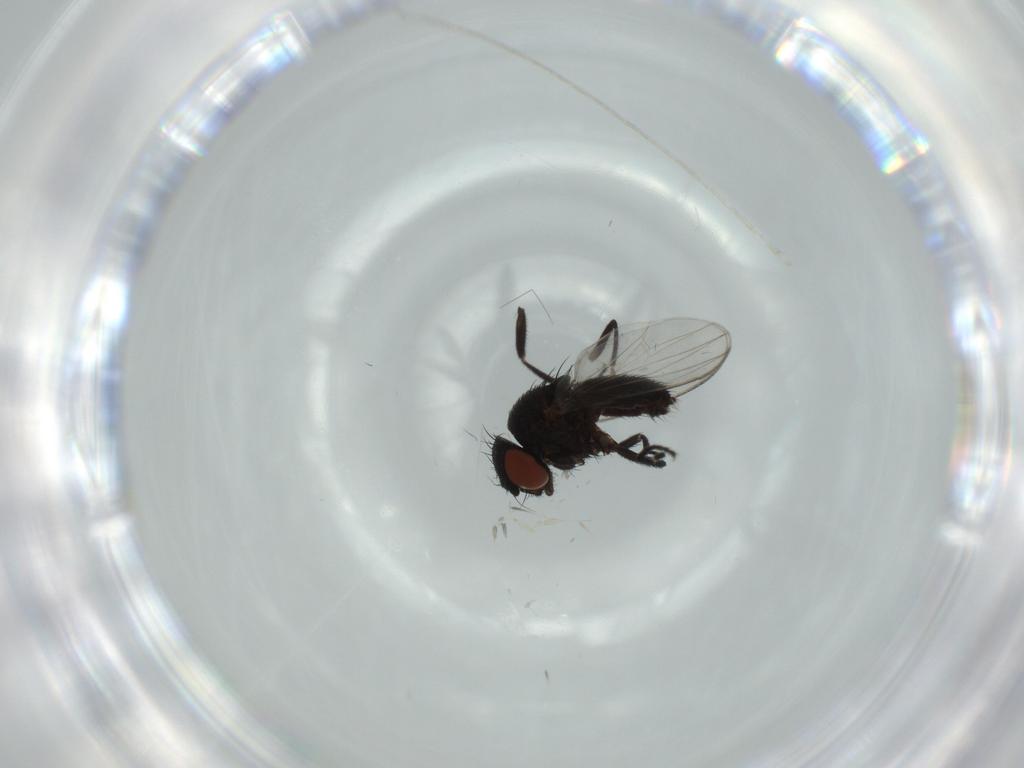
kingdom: Animalia
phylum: Arthropoda
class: Insecta
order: Diptera
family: Milichiidae
